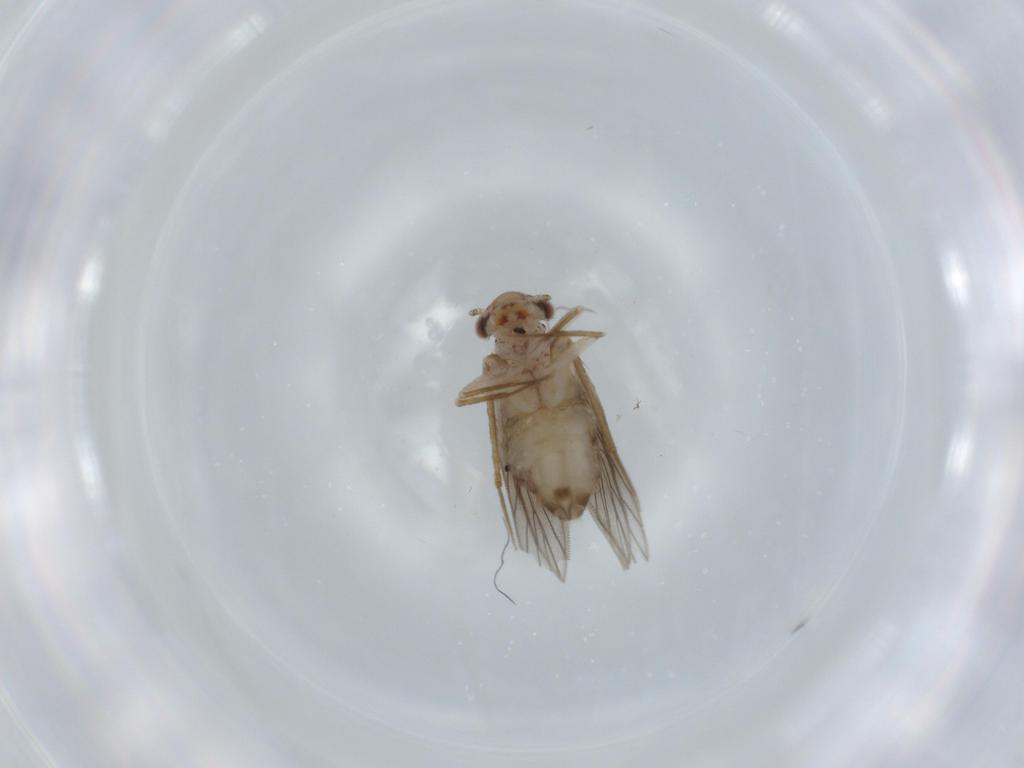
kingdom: Animalia
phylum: Arthropoda
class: Insecta
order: Psocodea
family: Lepidopsocidae
